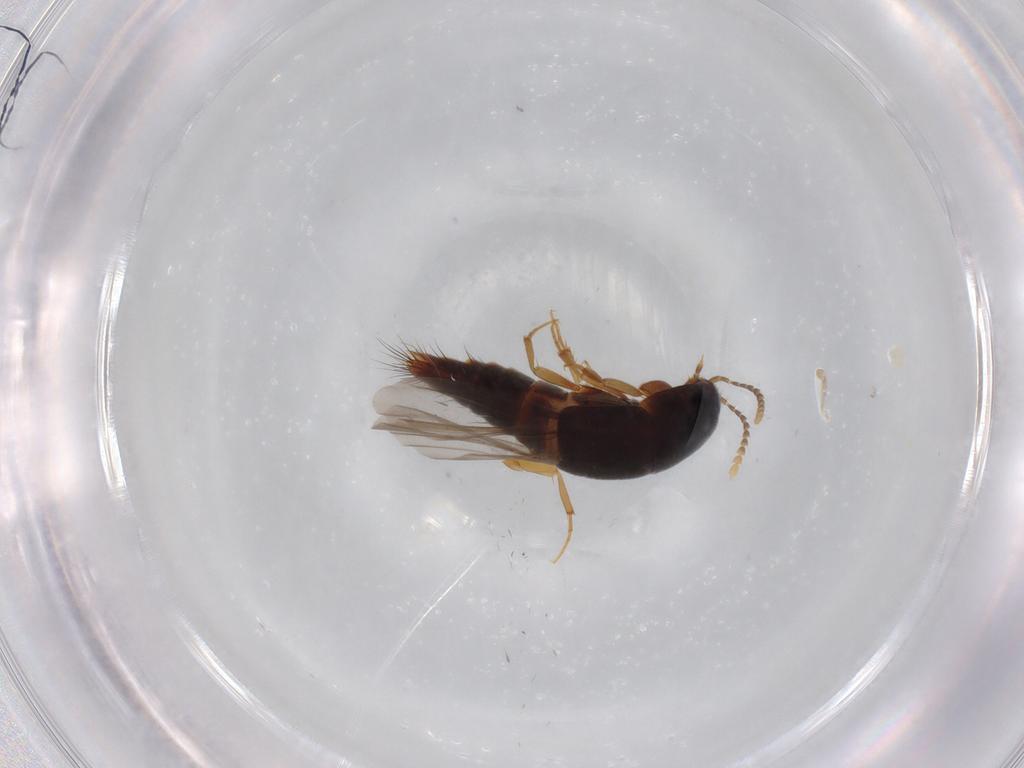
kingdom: Animalia
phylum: Arthropoda
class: Insecta
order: Coleoptera
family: Staphylinidae
